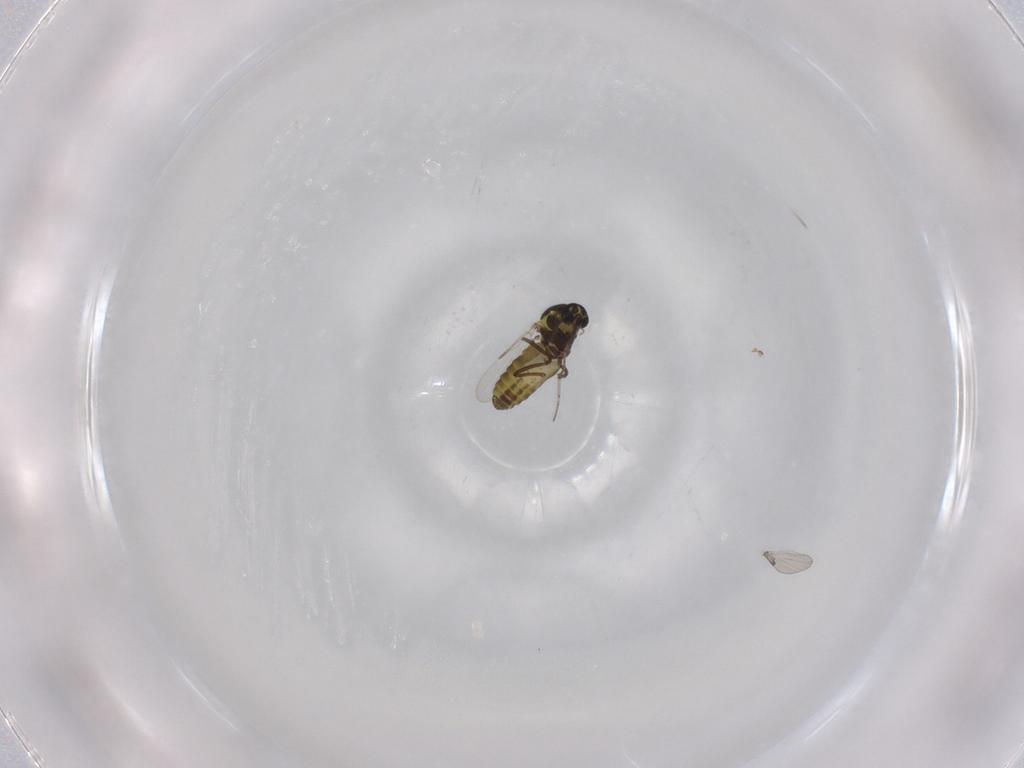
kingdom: Animalia
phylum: Arthropoda
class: Insecta
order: Diptera
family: Ceratopogonidae
